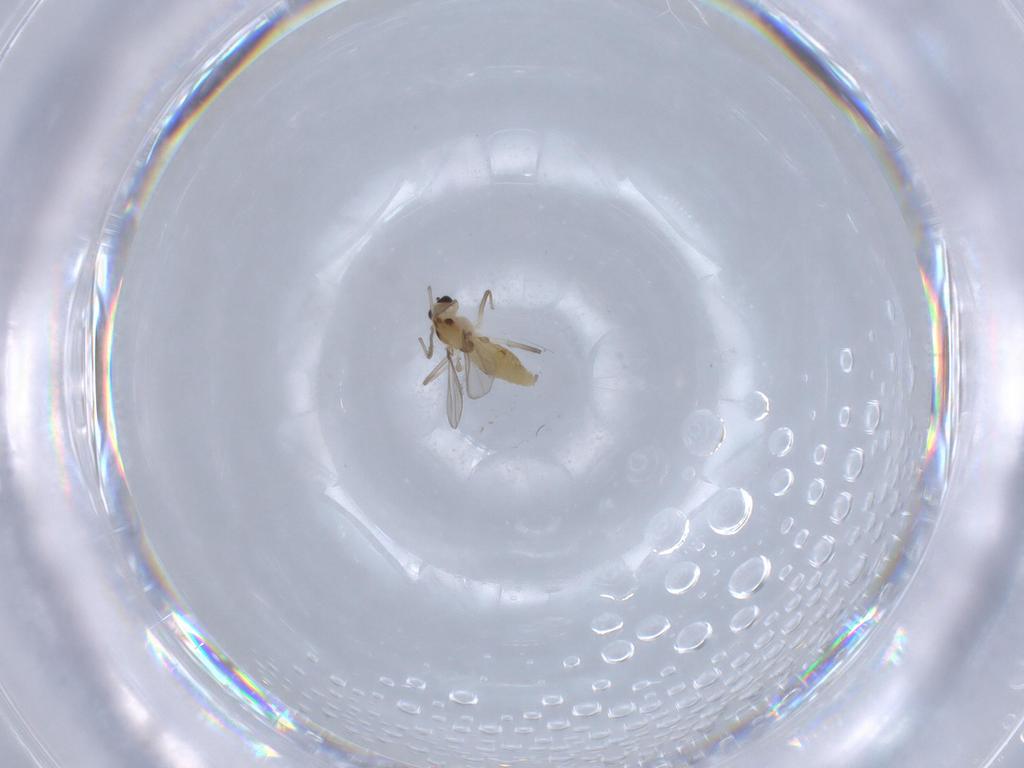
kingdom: Animalia
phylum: Arthropoda
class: Insecta
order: Diptera
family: Chironomidae
